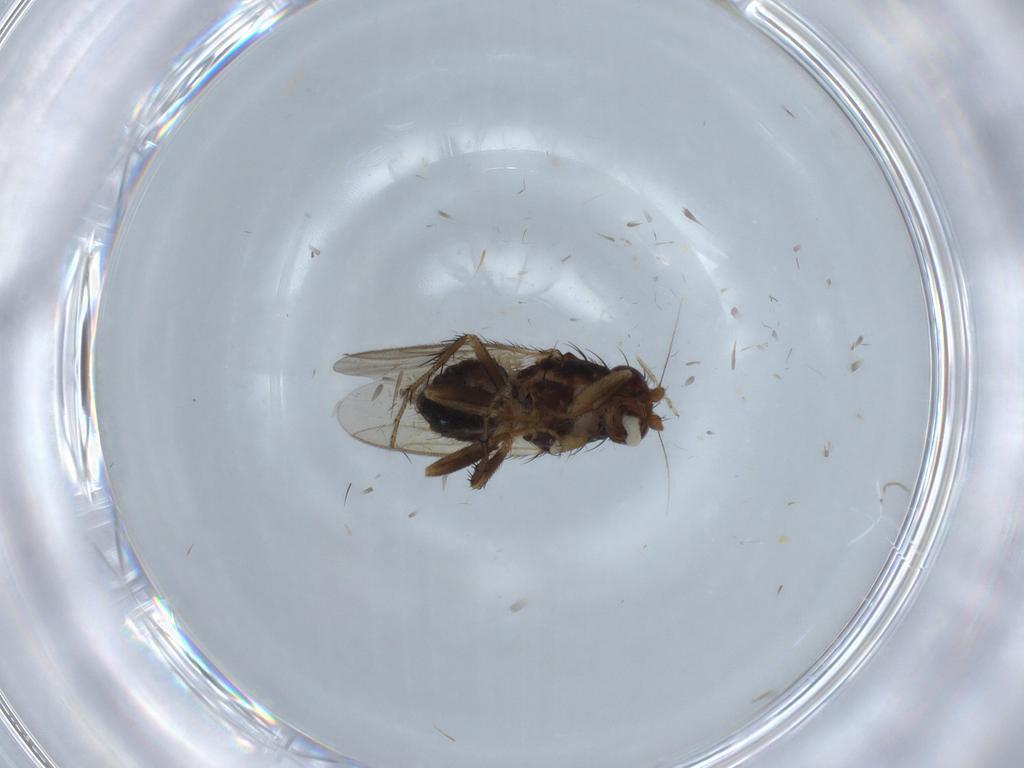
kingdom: Animalia
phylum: Arthropoda
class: Insecta
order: Diptera
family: Sphaeroceridae
